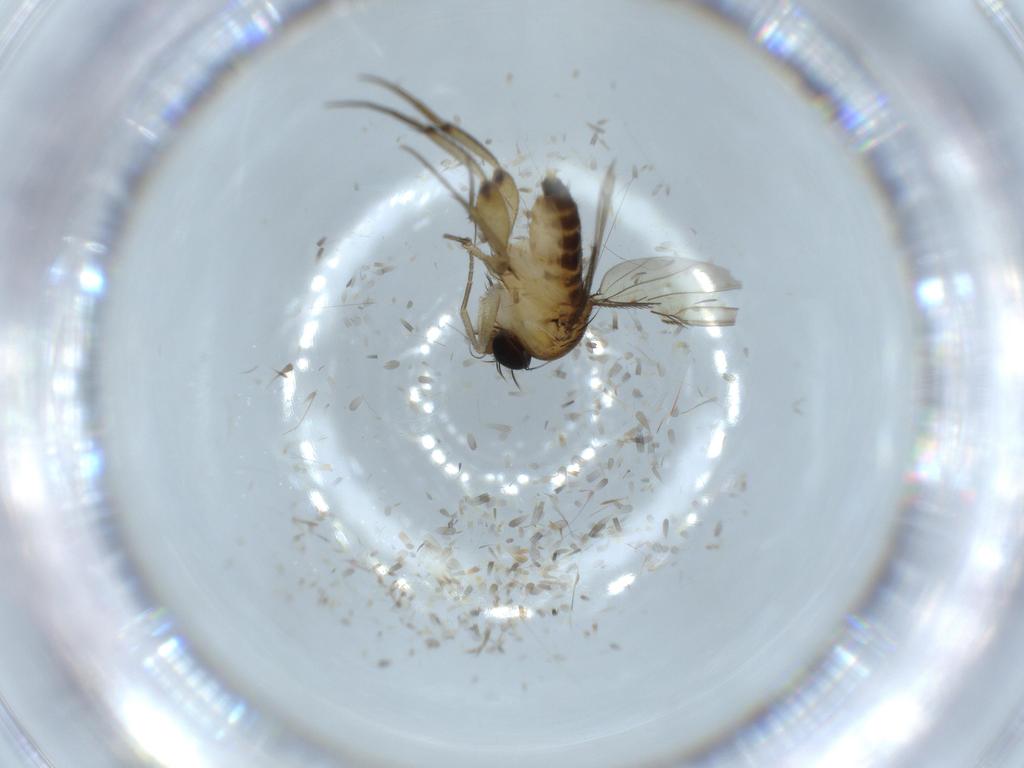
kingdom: Animalia
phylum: Arthropoda
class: Insecta
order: Diptera
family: Phoridae
